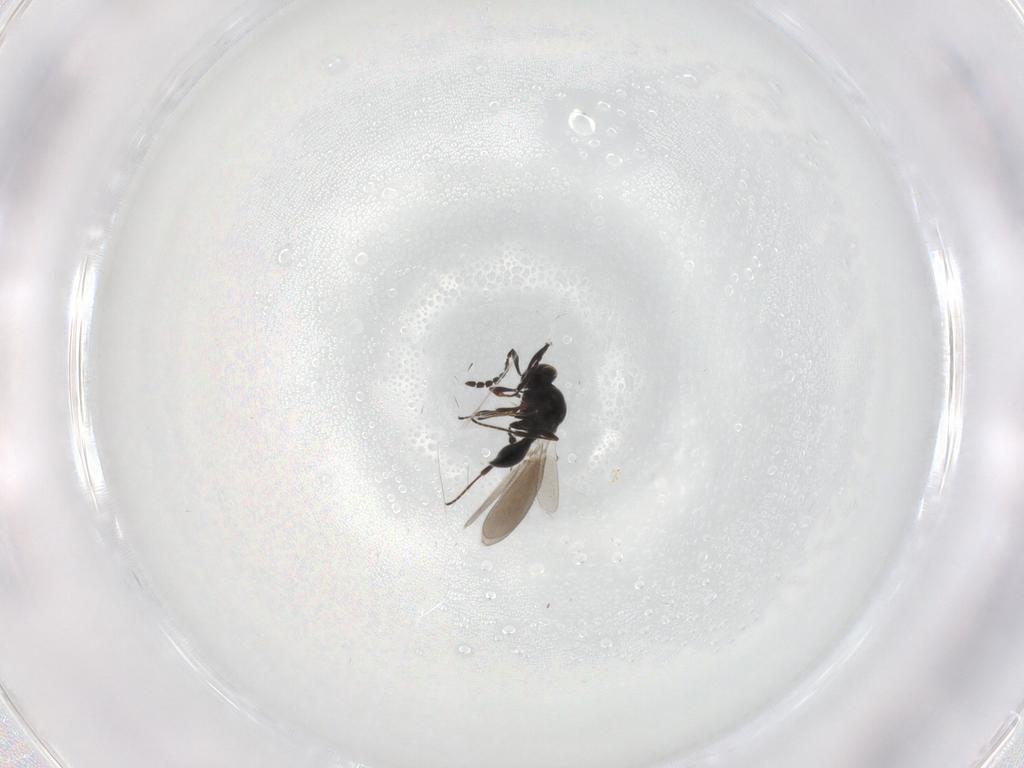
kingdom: Animalia
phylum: Arthropoda
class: Insecta
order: Hymenoptera
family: Platygastridae
